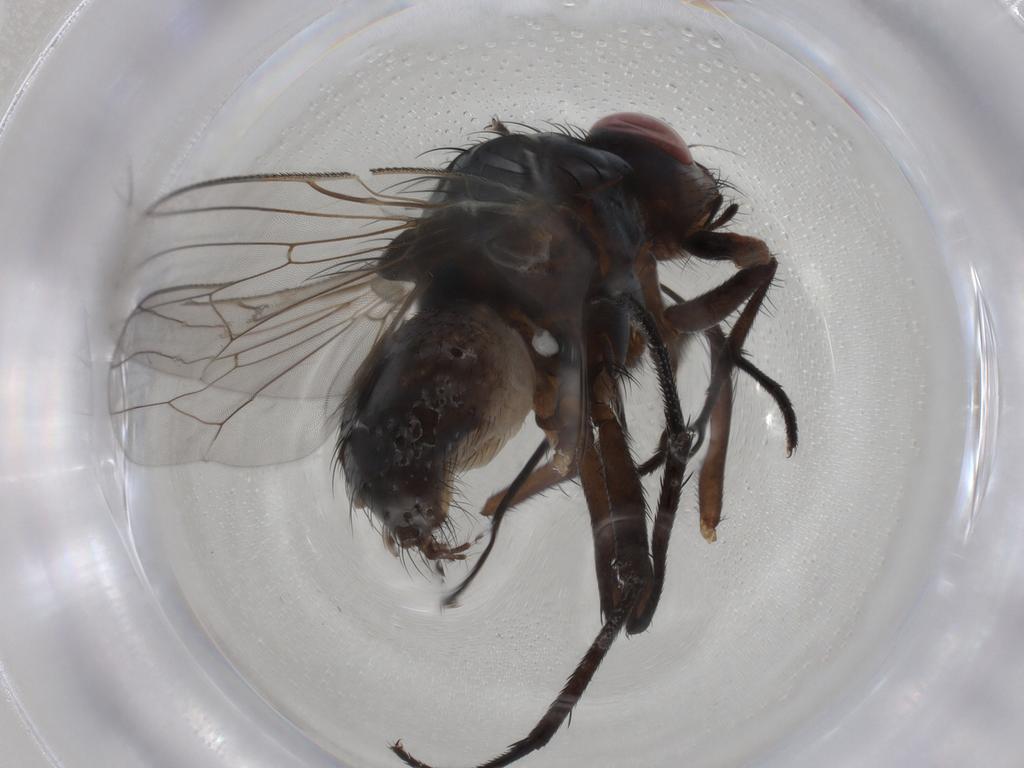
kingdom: Animalia
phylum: Arthropoda
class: Insecta
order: Diptera
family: Anthomyiidae
